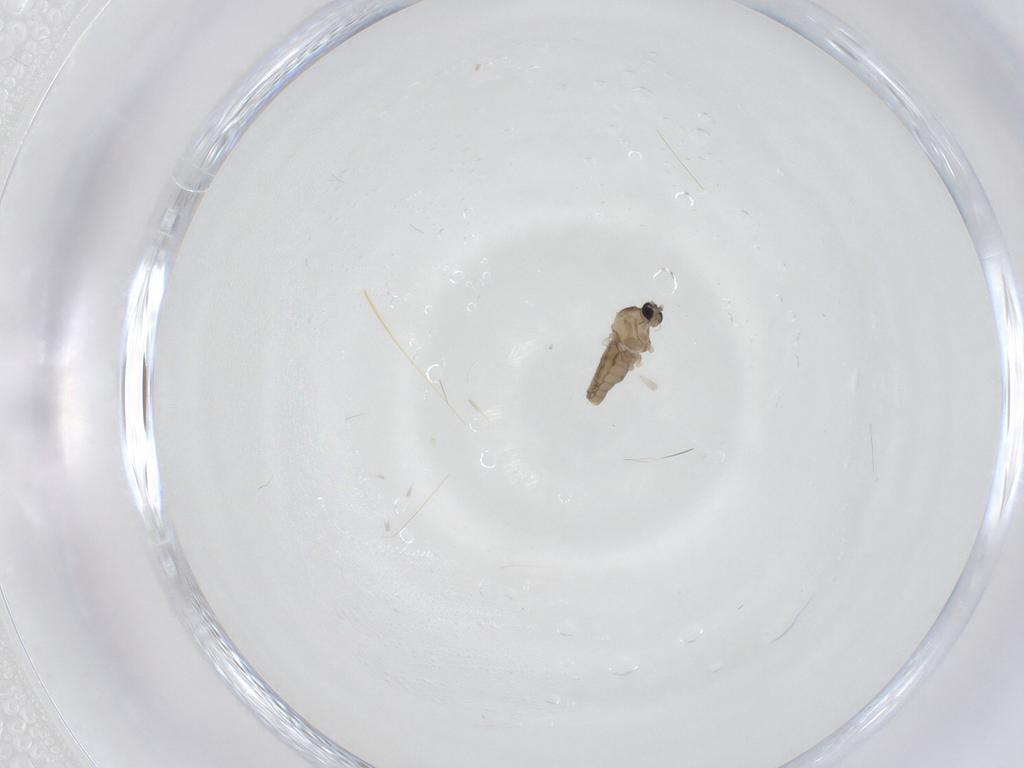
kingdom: Animalia
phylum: Arthropoda
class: Insecta
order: Diptera
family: Cecidomyiidae
